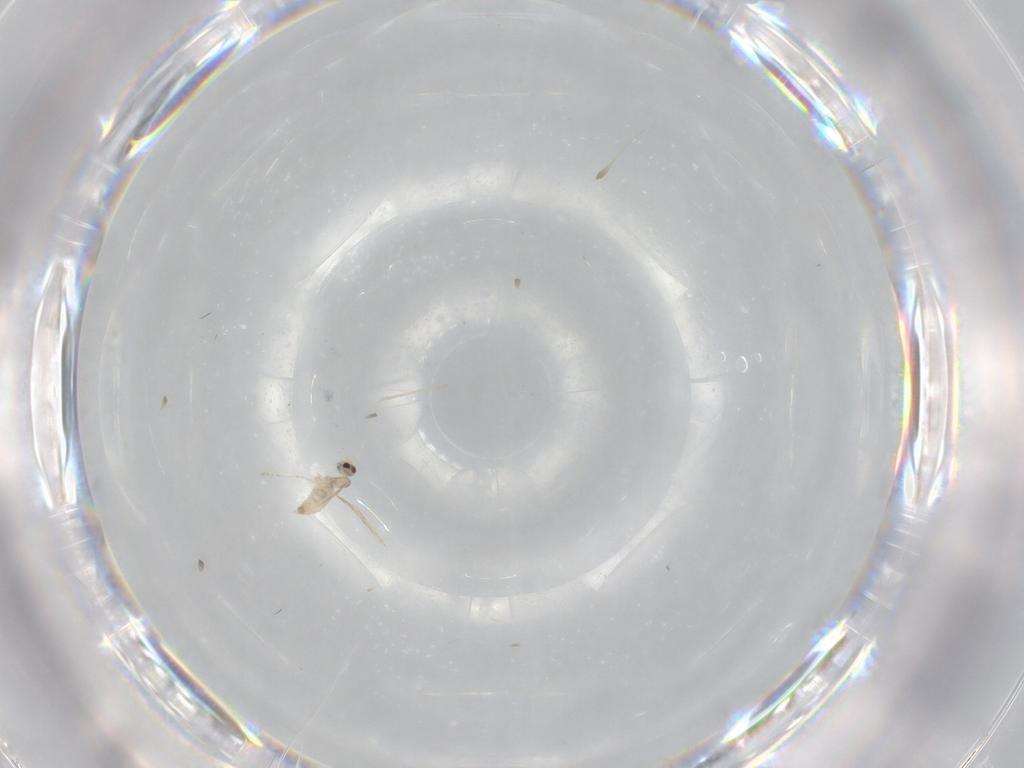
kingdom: Animalia
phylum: Arthropoda
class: Insecta
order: Diptera
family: Cecidomyiidae
